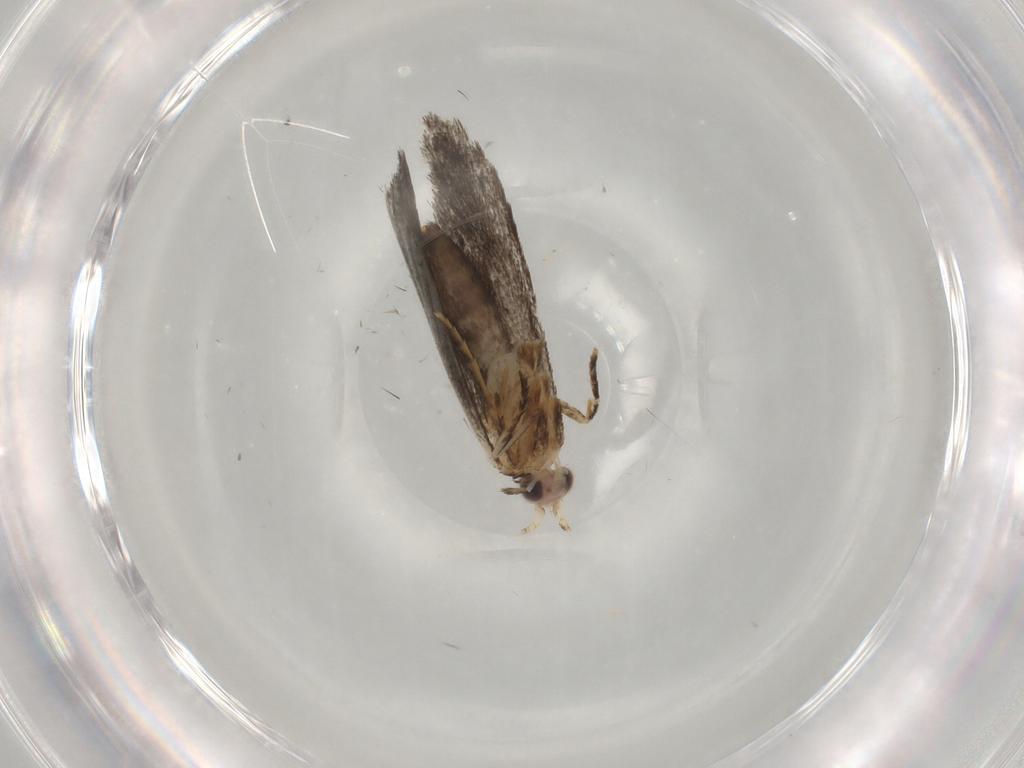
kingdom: Animalia
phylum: Arthropoda
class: Insecta
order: Lepidoptera
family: Nepticulidae
